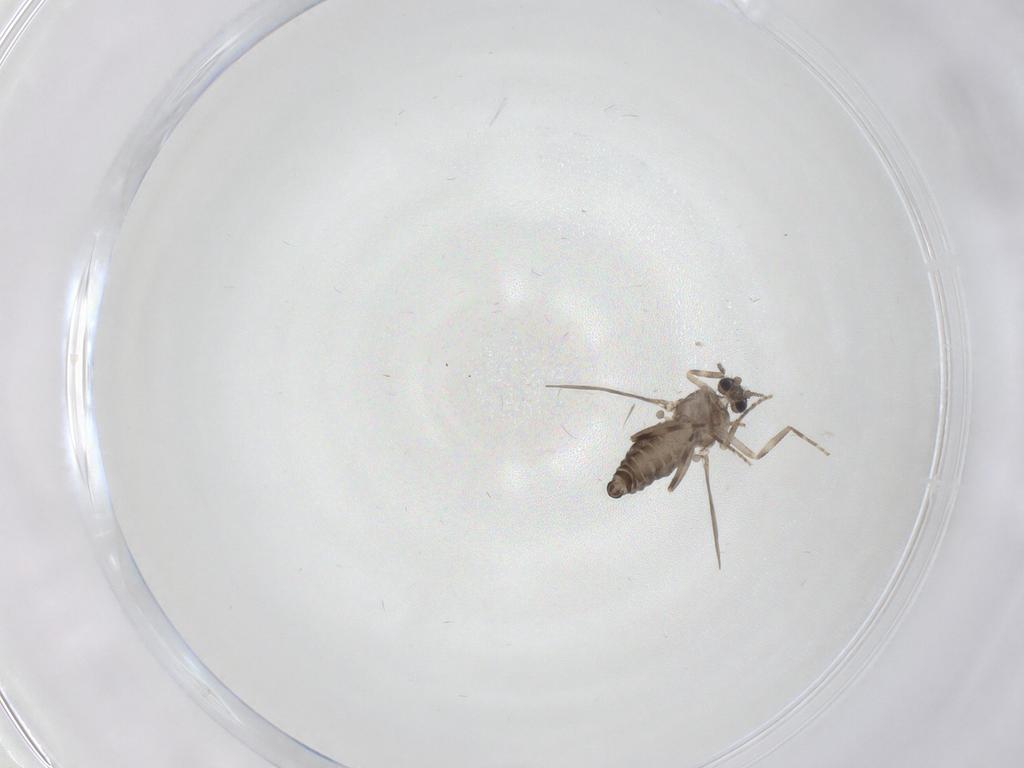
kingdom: Animalia
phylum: Arthropoda
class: Insecta
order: Diptera
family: Ceratopogonidae
